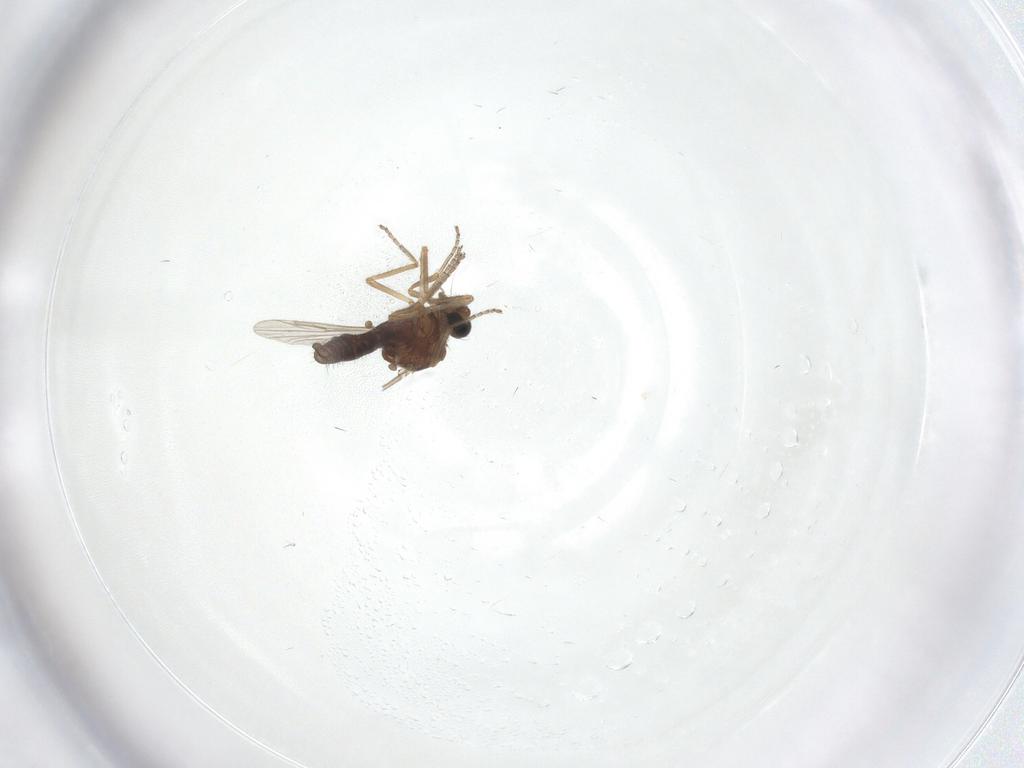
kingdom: Animalia
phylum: Arthropoda
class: Insecta
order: Diptera
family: Ceratopogonidae
